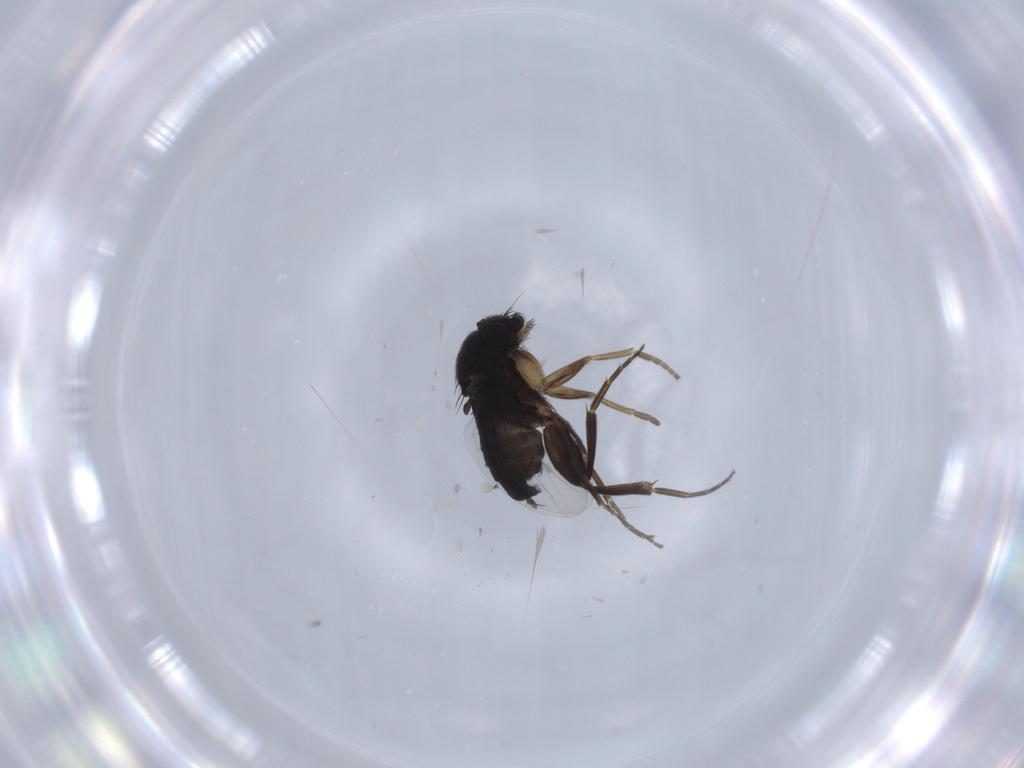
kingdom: Animalia
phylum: Arthropoda
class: Insecta
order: Diptera
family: Phoridae
